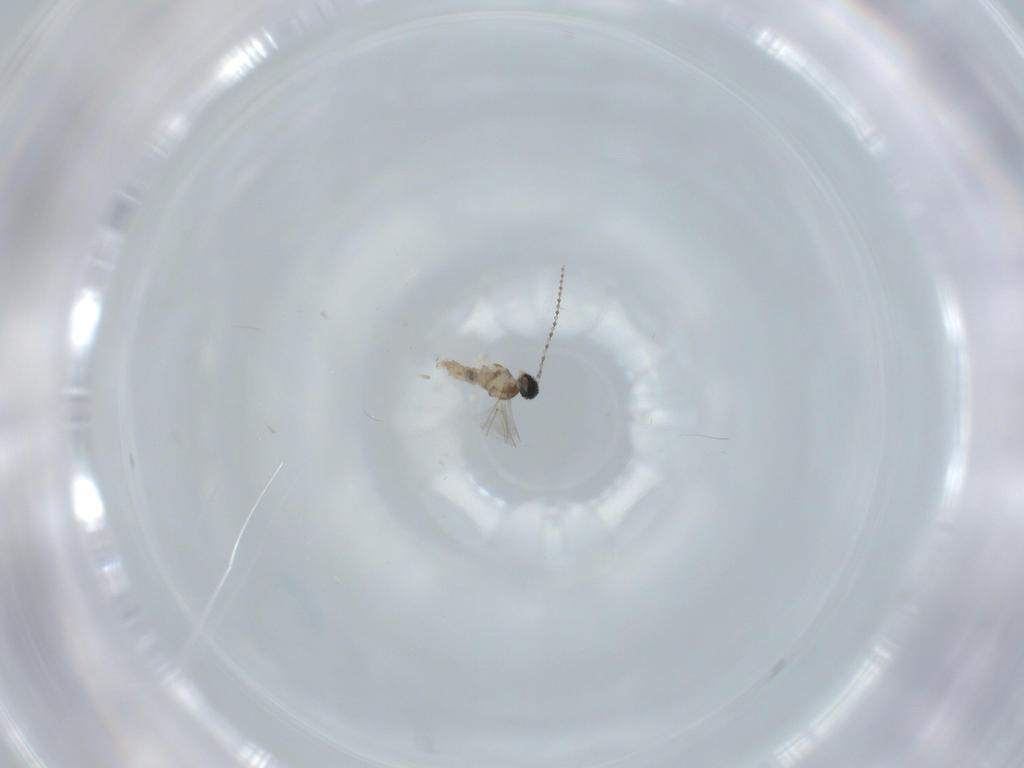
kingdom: Animalia
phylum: Arthropoda
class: Insecta
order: Diptera
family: Cecidomyiidae
